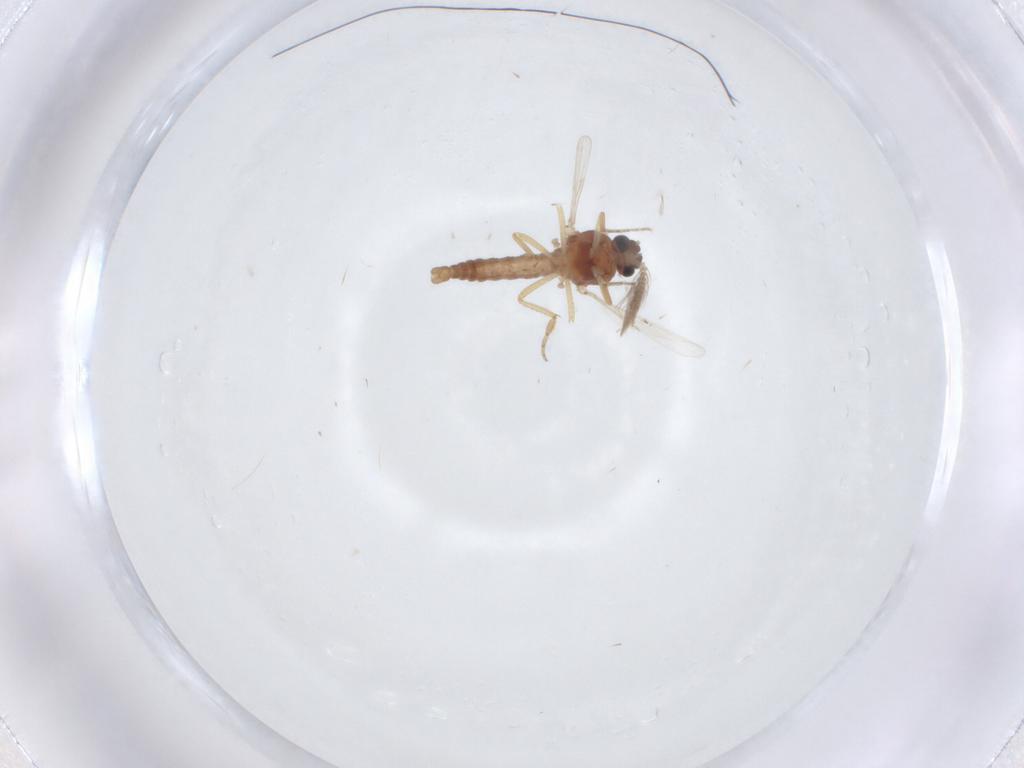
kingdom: Animalia
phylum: Arthropoda
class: Insecta
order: Diptera
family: Ceratopogonidae
